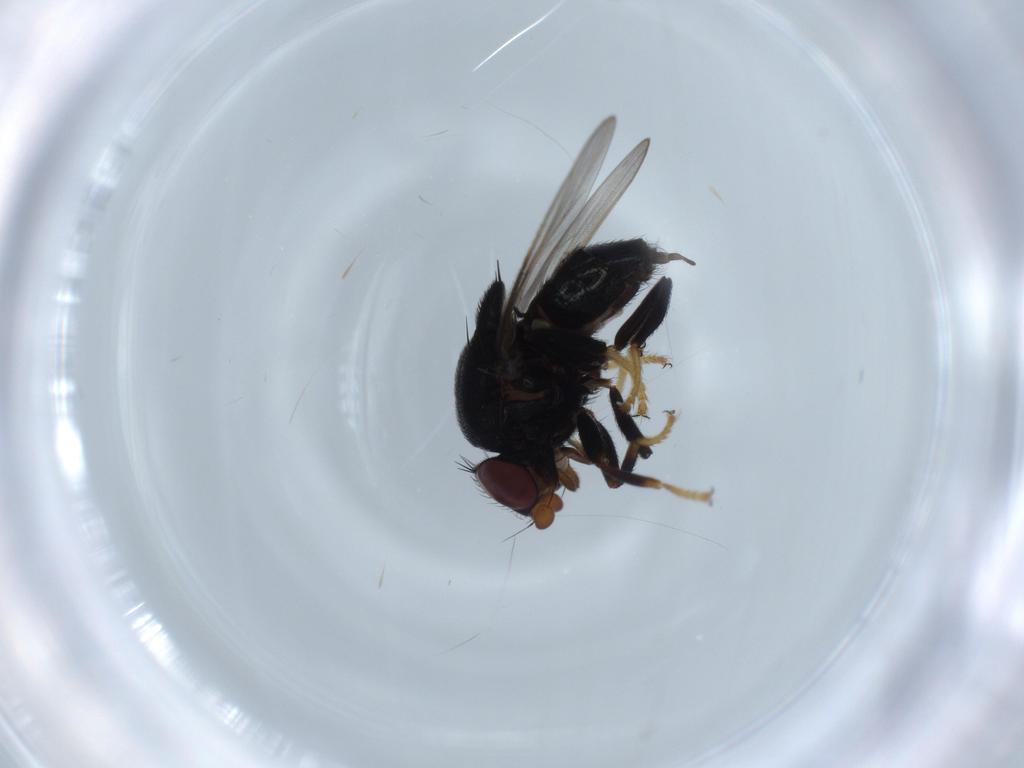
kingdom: Animalia
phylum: Arthropoda
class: Insecta
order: Diptera
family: Chloropidae
